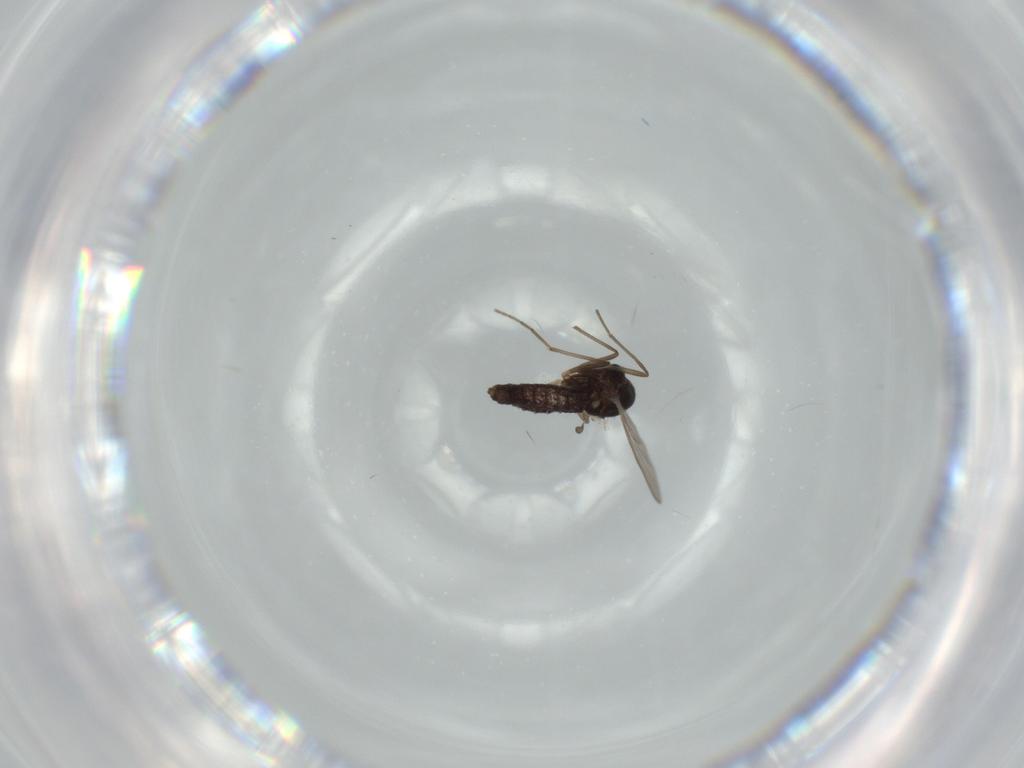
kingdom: Animalia
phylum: Arthropoda
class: Insecta
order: Diptera
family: Chironomidae
